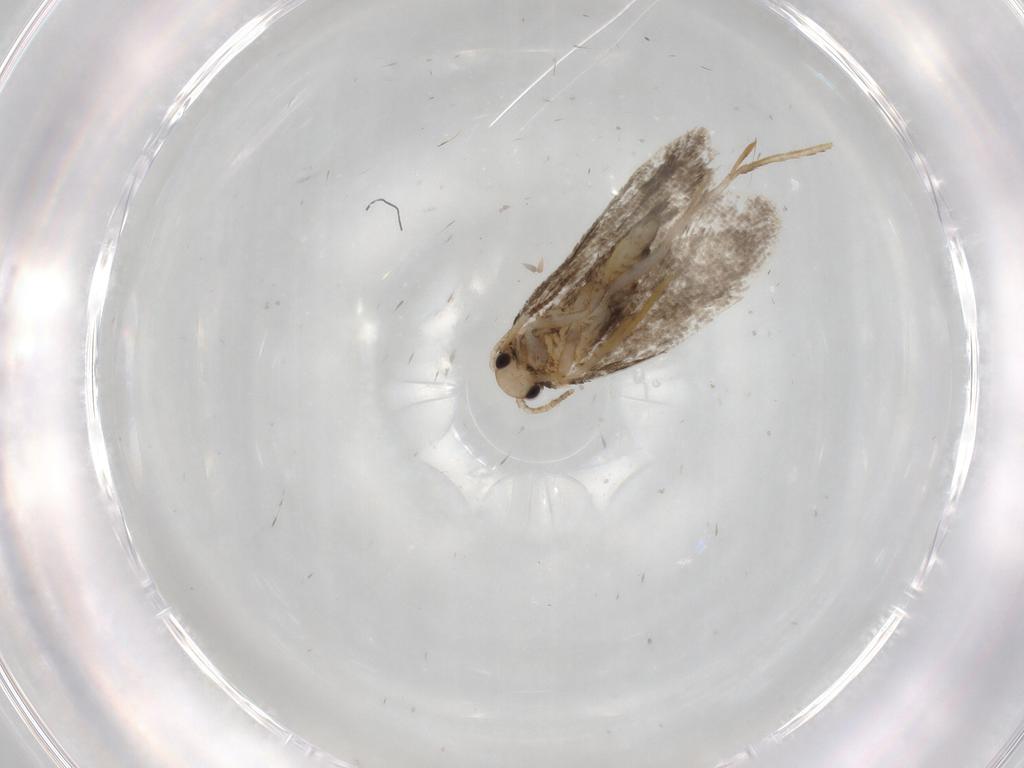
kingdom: Animalia
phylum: Arthropoda
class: Insecta
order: Lepidoptera
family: Psychidae
